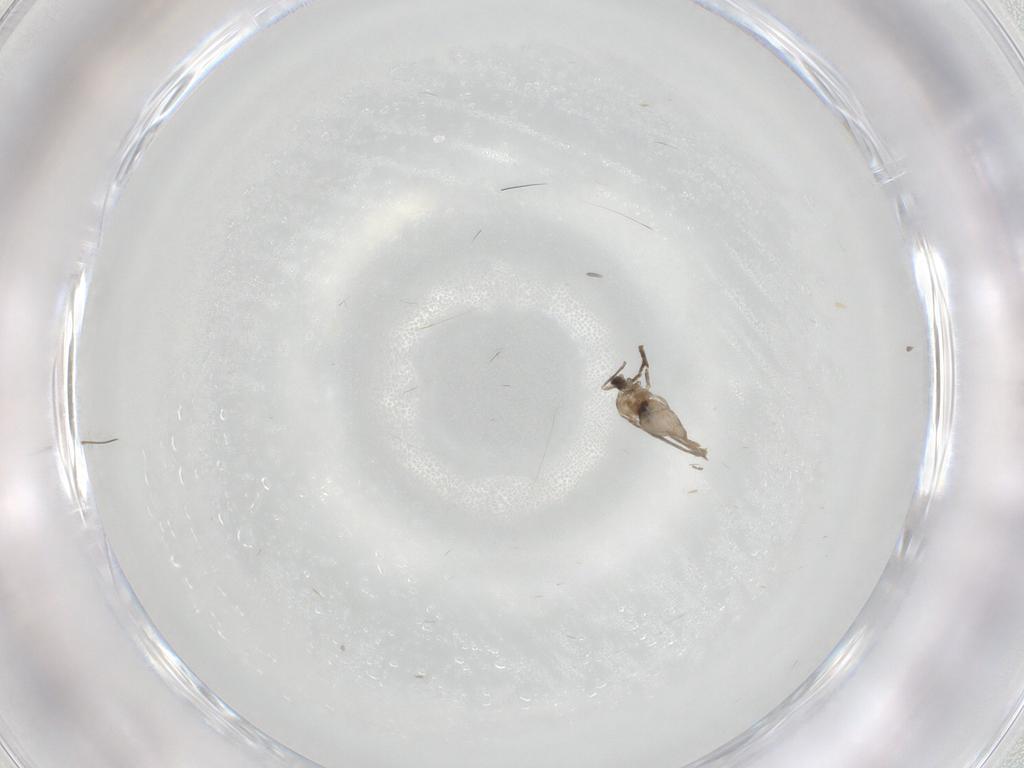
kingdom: Animalia
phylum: Arthropoda
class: Insecta
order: Diptera
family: Cecidomyiidae
